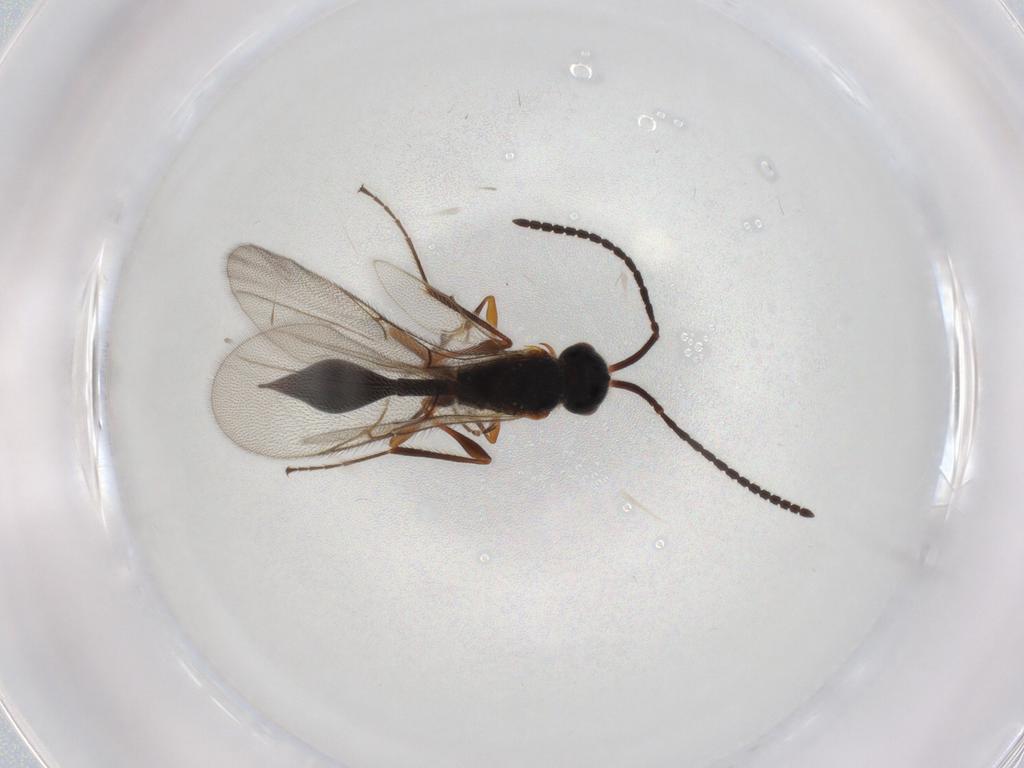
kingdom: Animalia
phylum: Arthropoda
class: Insecta
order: Hymenoptera
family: Diapriidae
